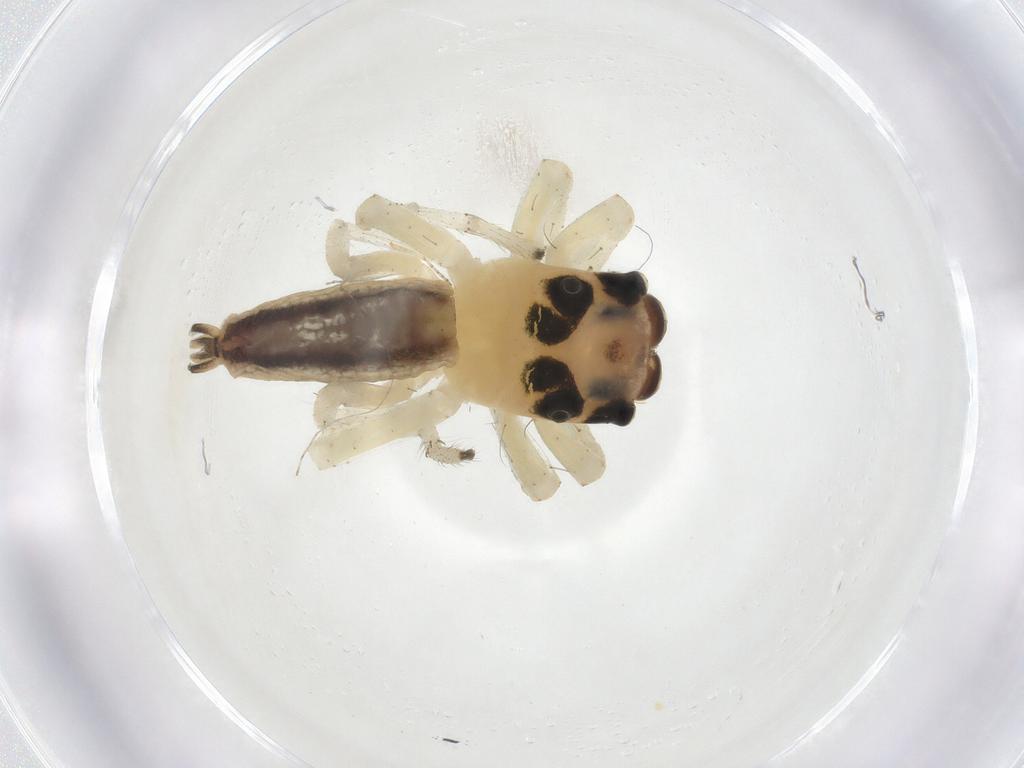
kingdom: Animalia
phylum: Arthropoda
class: Arachnida
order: Araneae
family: Salticidae
